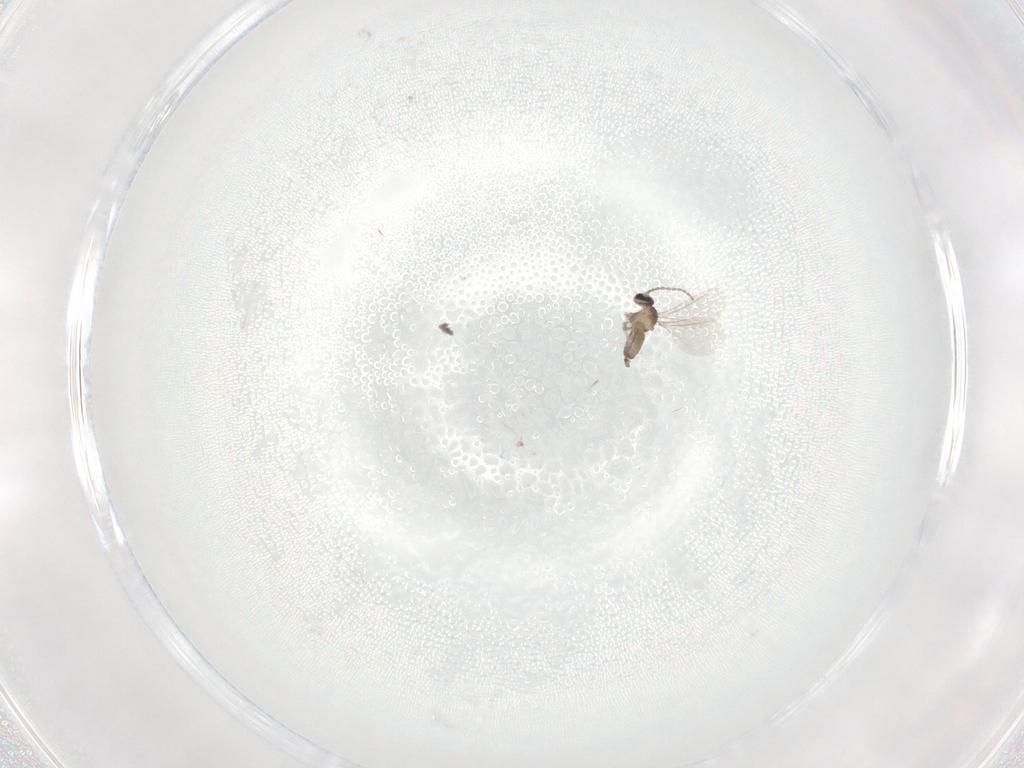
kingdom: Animalia
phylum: Arthropoda
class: Insecta
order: Diptera
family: Cecidomyiidae
